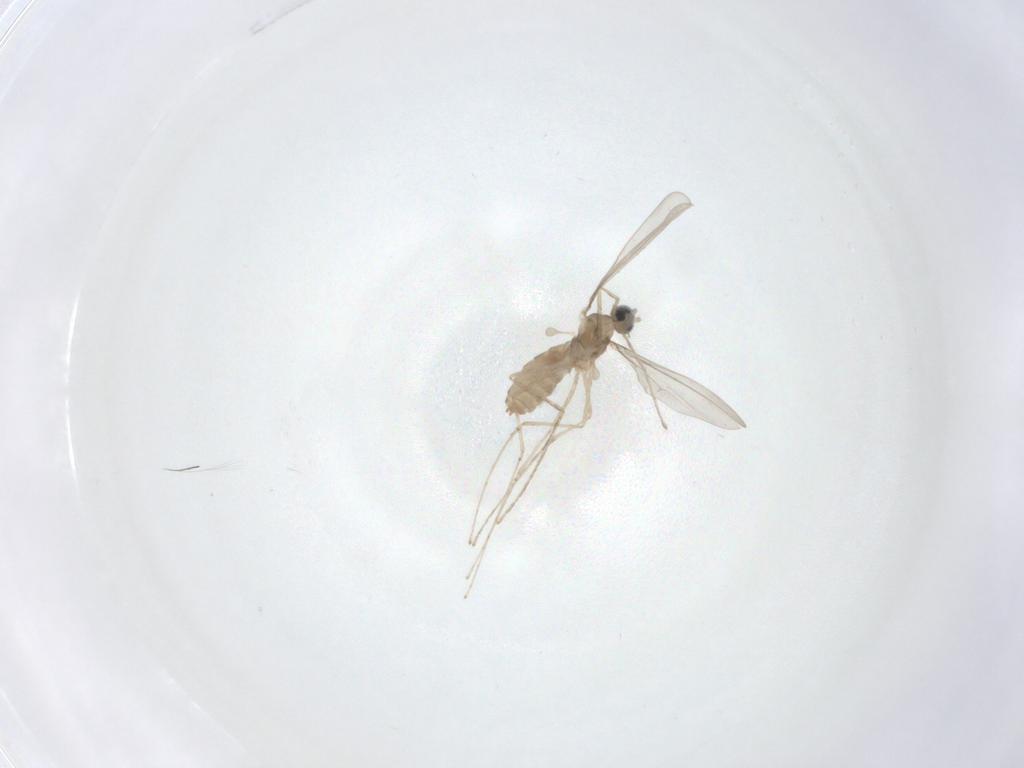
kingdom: Animalia
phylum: Arthropoda
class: Insecta
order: Diptera
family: Cecidomyiidae
